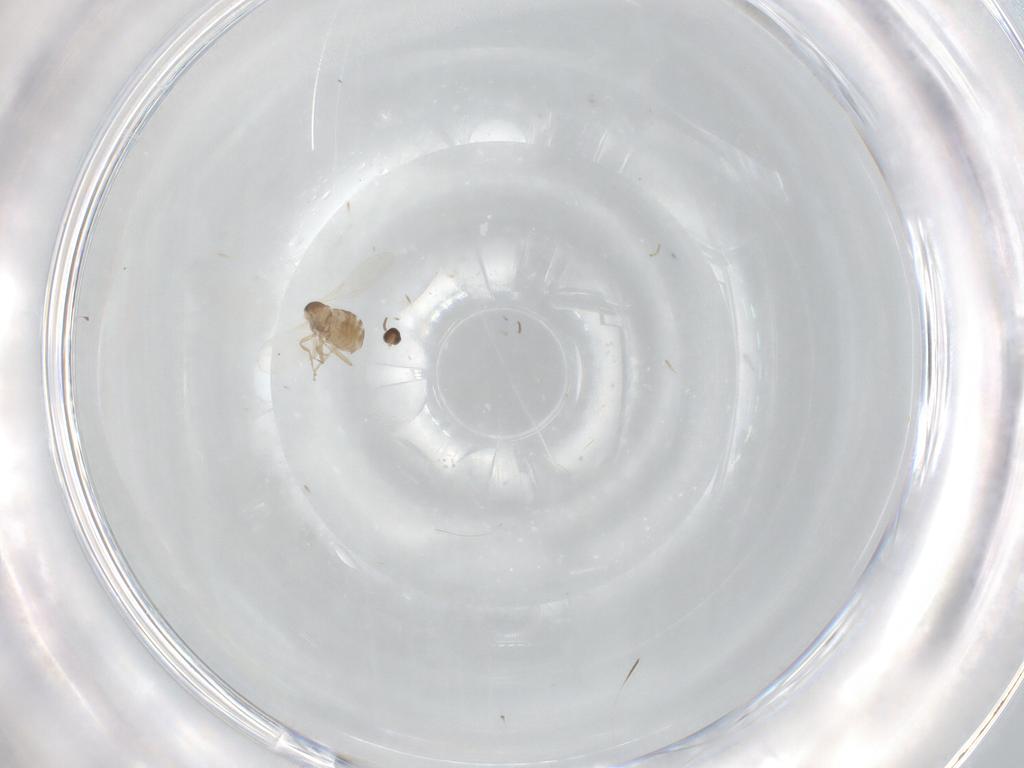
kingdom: Animalia
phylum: Arthropoda
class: Insecta
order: Diptera
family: Cecidomyiidae
